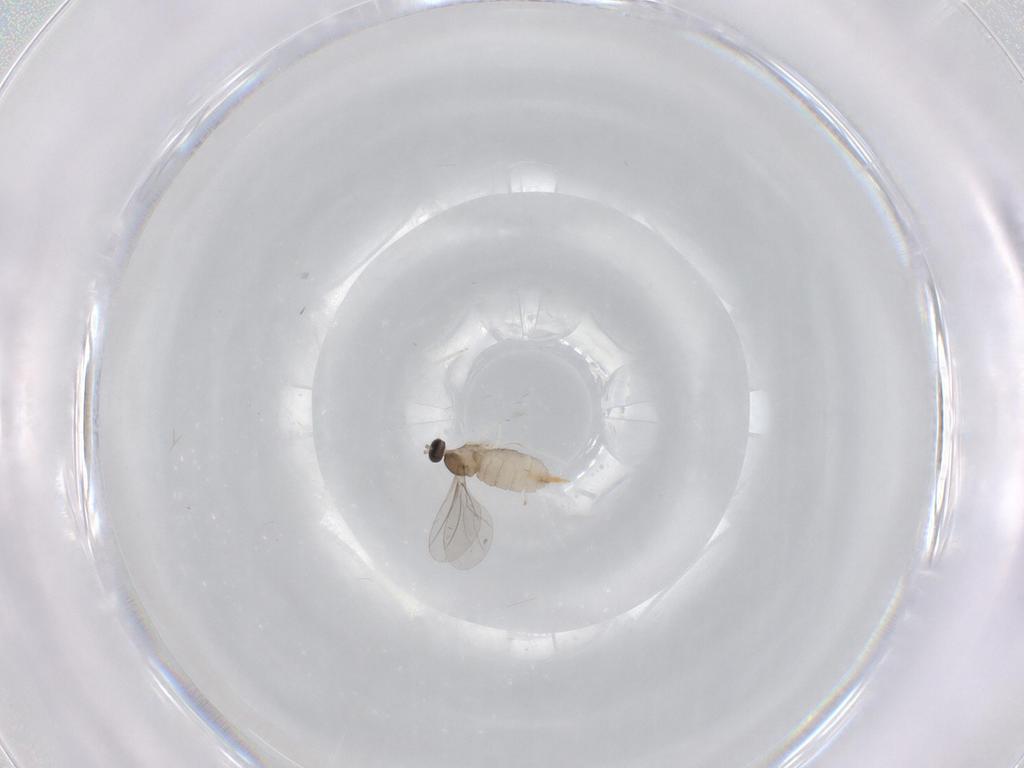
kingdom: Animalia
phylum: Arthropoda
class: Insecta
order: Diptera
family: Cecidomyiidae
